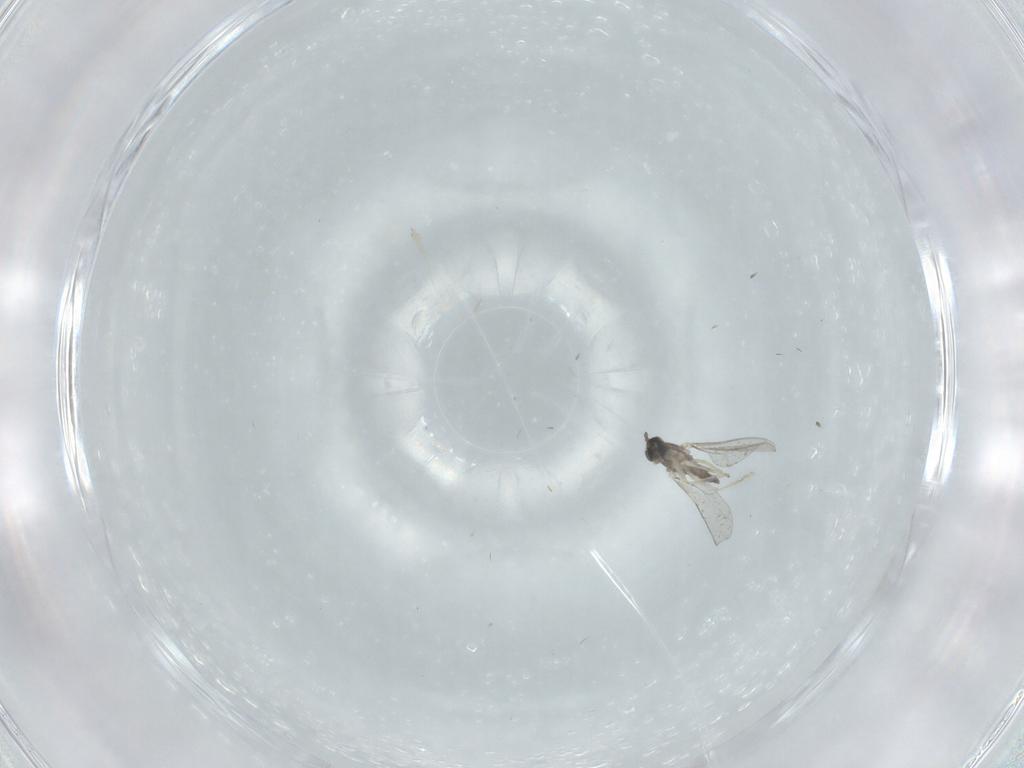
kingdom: Animalia
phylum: Arthropoda
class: Insecta
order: Diptera
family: Cecidomyiidae
